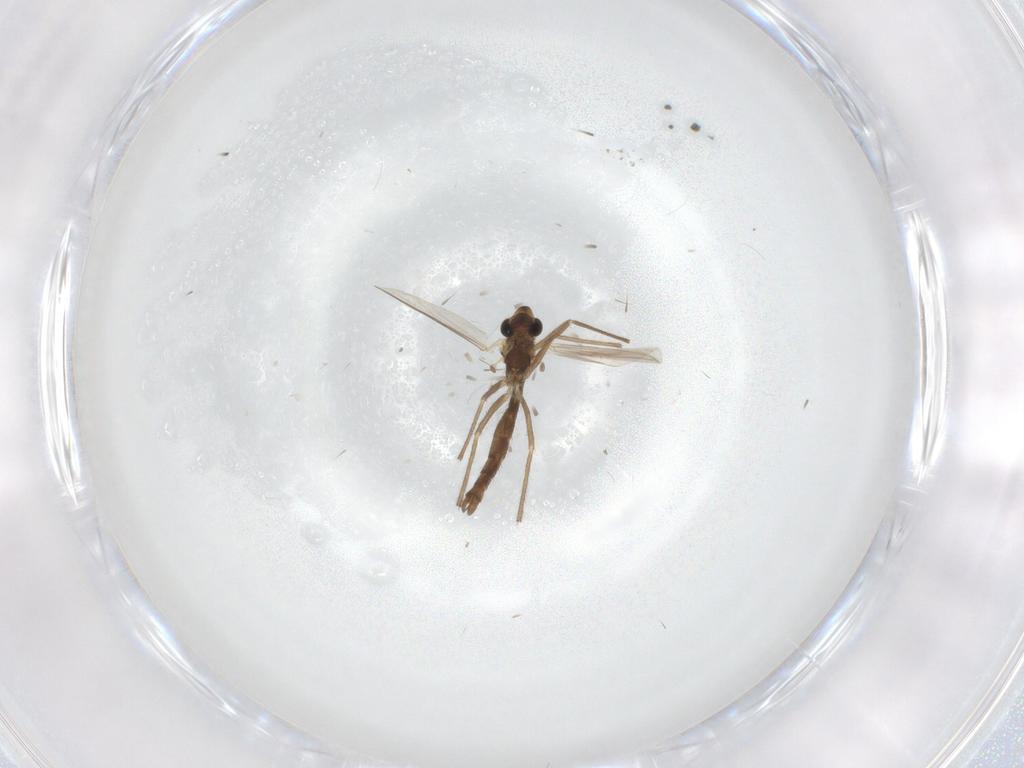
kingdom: Animalia
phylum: Arthropoda
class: Insecta
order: Diptera
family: Chironomidae
